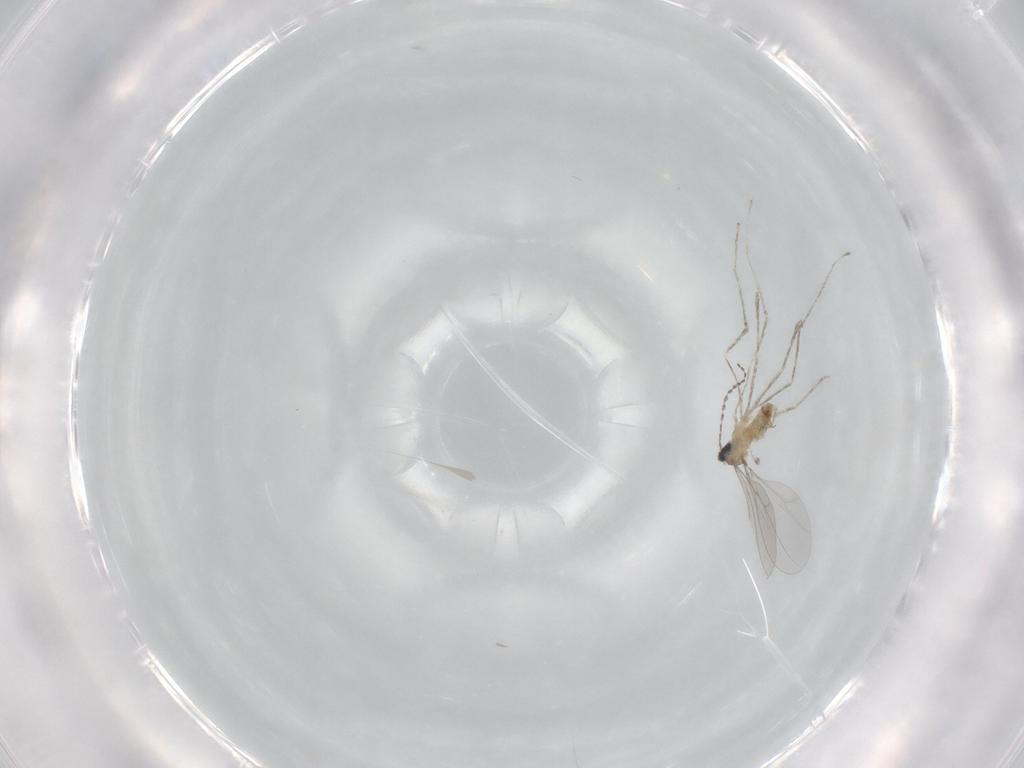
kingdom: Animalia
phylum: Arthropoda
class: Insecta
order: Diptera
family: Cecidomyiidae
